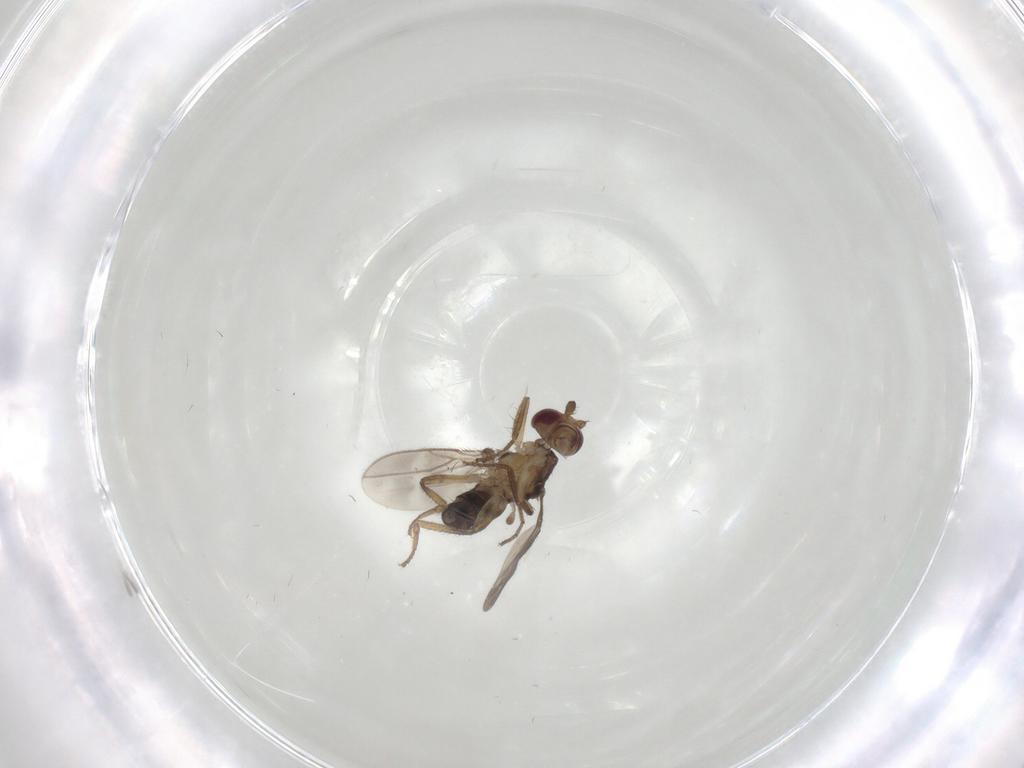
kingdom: Animalia
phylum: Arthropoda
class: Insecta
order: Diptera
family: Sphaeroceridae
